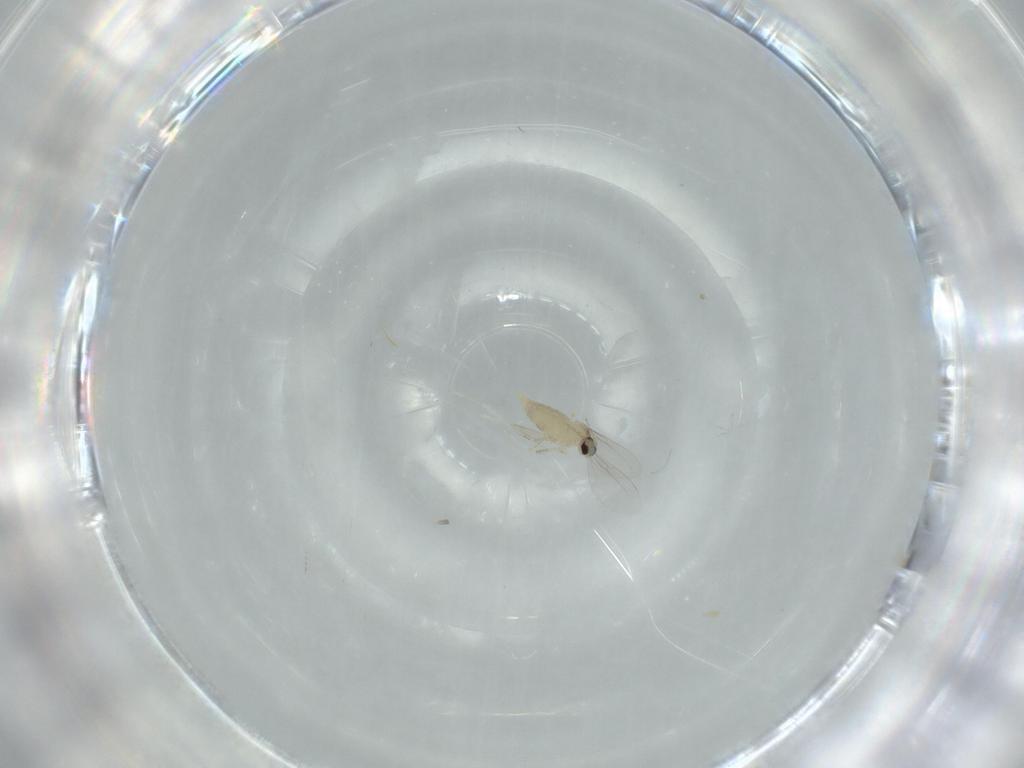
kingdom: Animalia
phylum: Arthropoda
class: Insecta
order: Diptera
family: Cecidomyiidae
